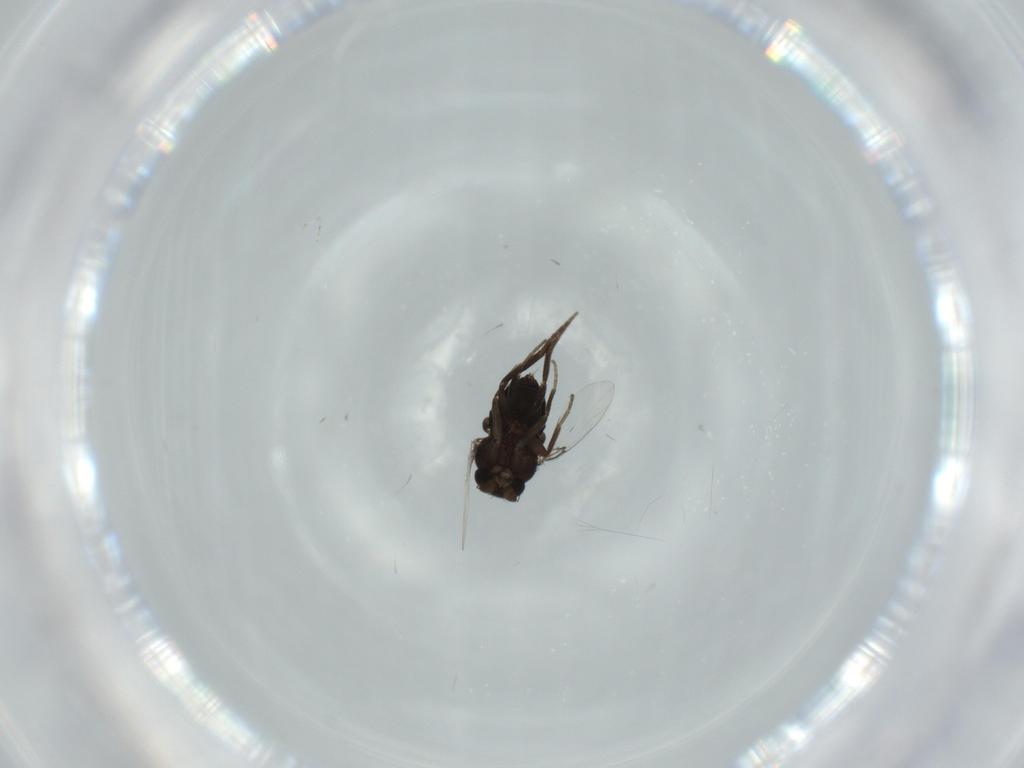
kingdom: Animalia
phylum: Arthropoda
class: Insecta
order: Diptera
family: Phoridae
